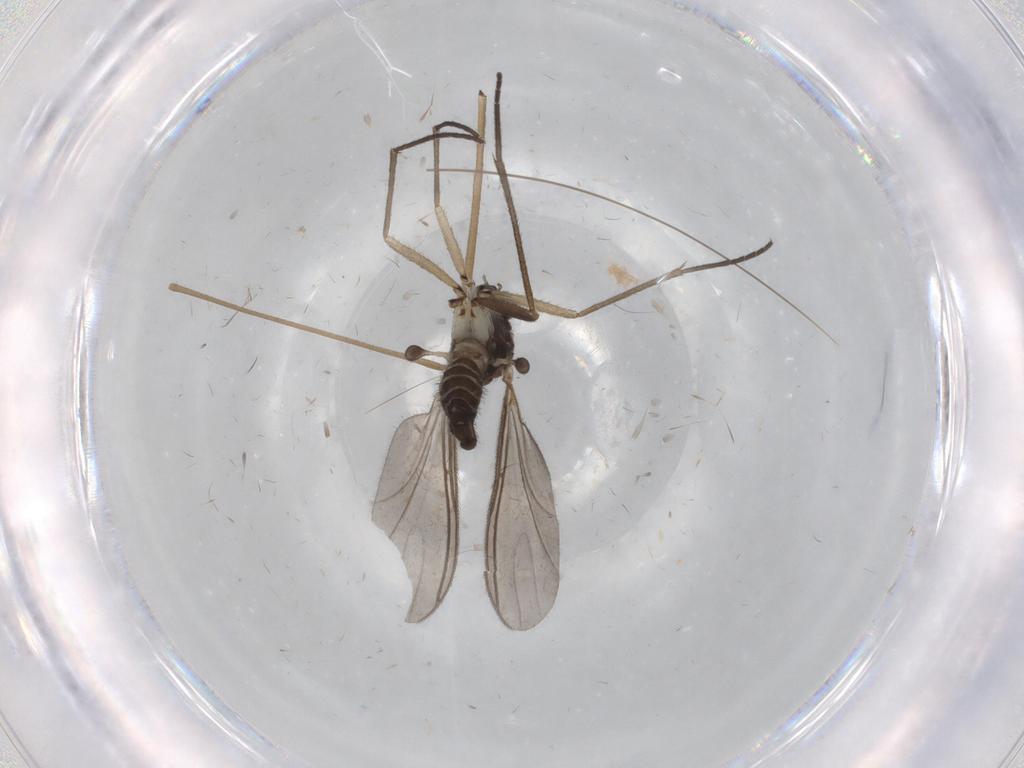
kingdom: Animalia
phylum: Arthropoda
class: Insecta
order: Diptera
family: Sciaridae
